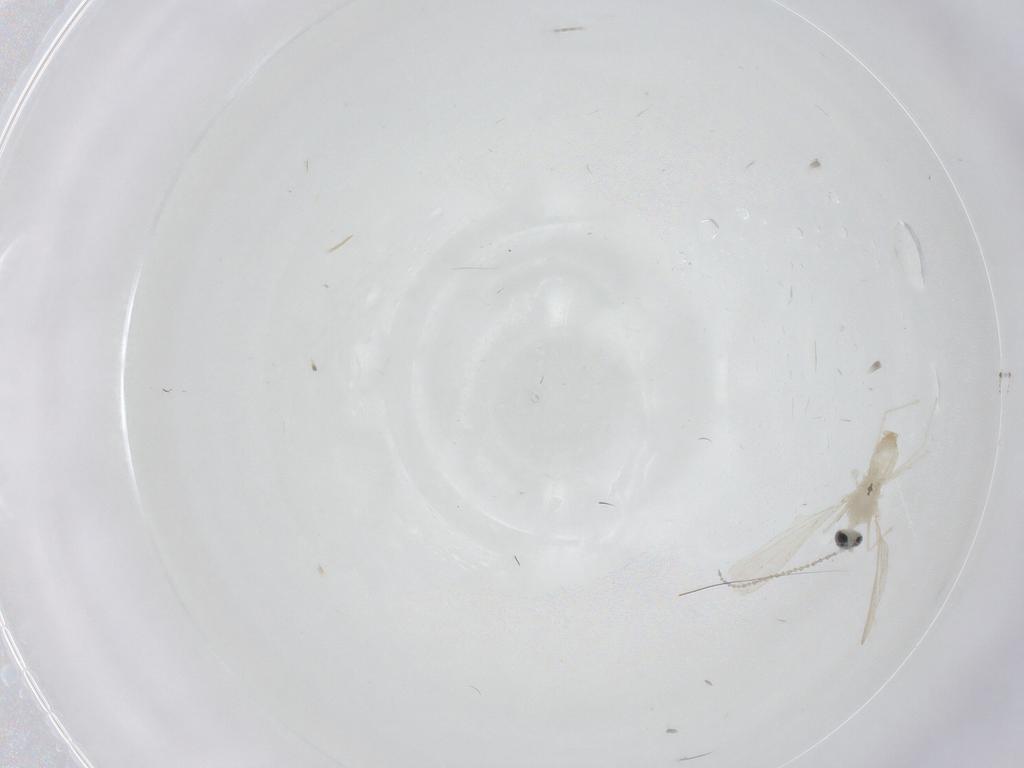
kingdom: Animalia
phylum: Arthropoda
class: Insecta
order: Diptera
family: Cecidomyiidae
